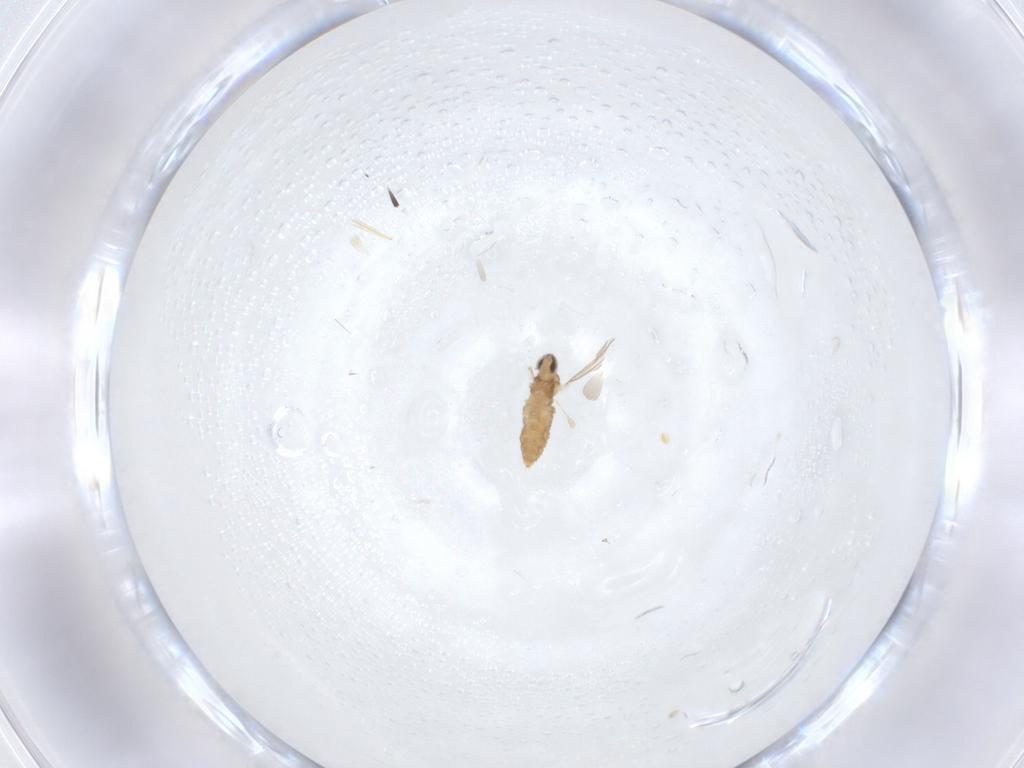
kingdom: Animalia
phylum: Arthropoda
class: Insecta
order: Diptera
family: Cecidomyiidae
